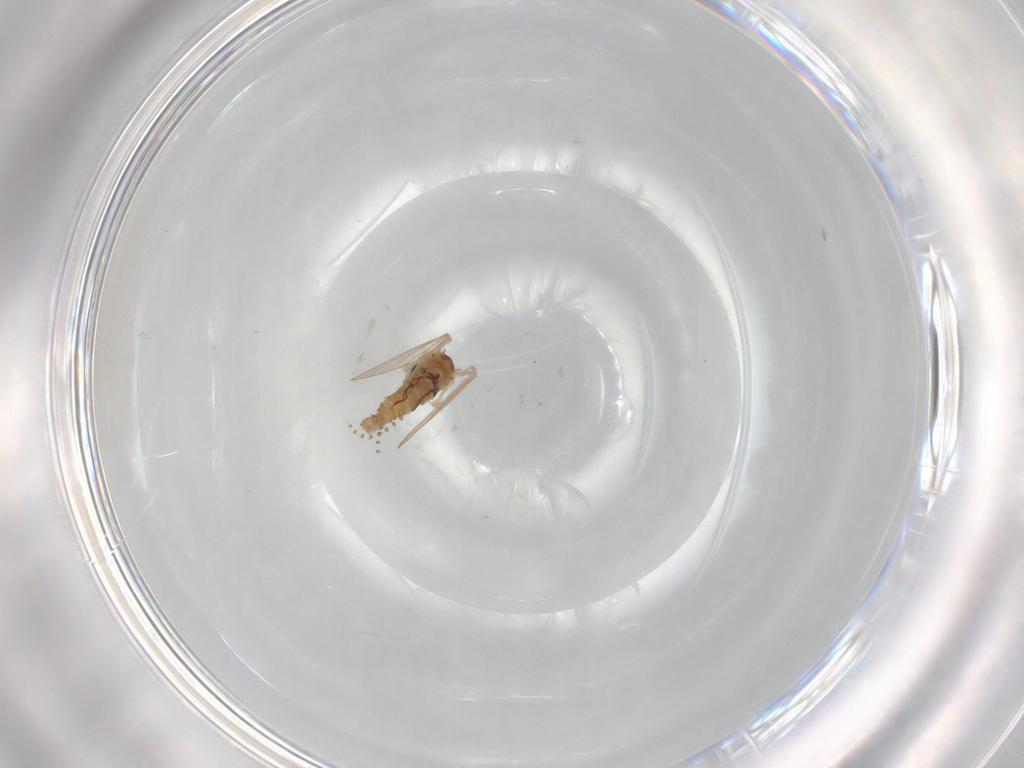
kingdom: Animalia
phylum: Arthropoda
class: Insecta
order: Diptera
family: Psychodidae
